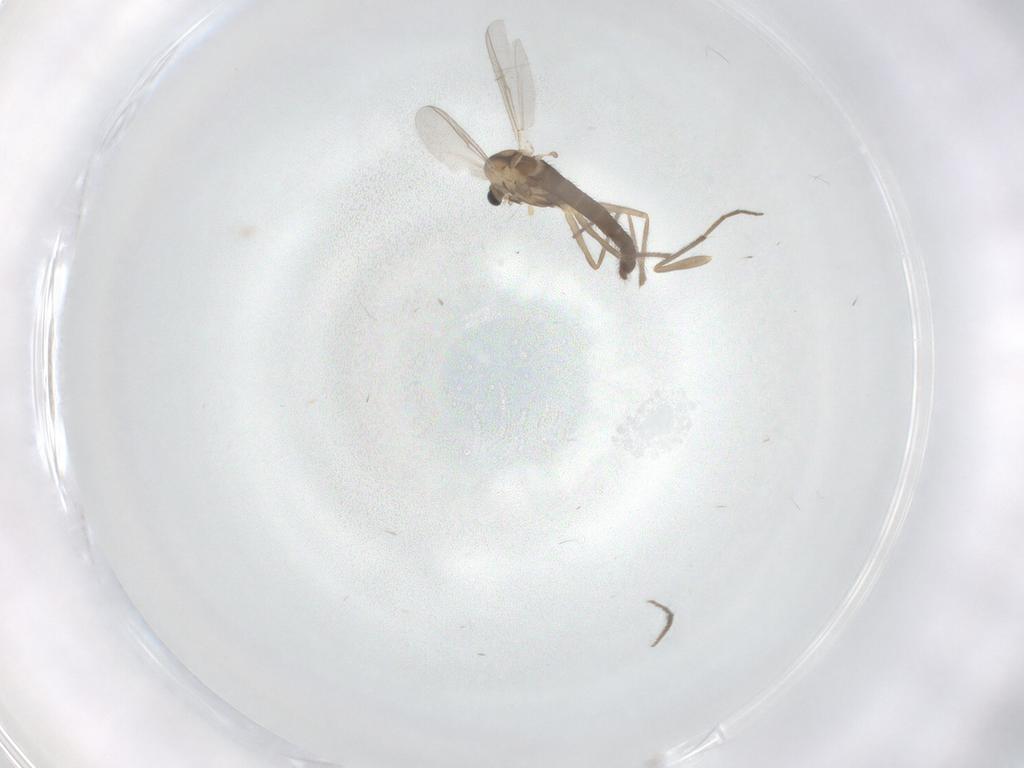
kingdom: Animalia
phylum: Arthropoda
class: Insecta
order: Diptera
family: Chironomidae
